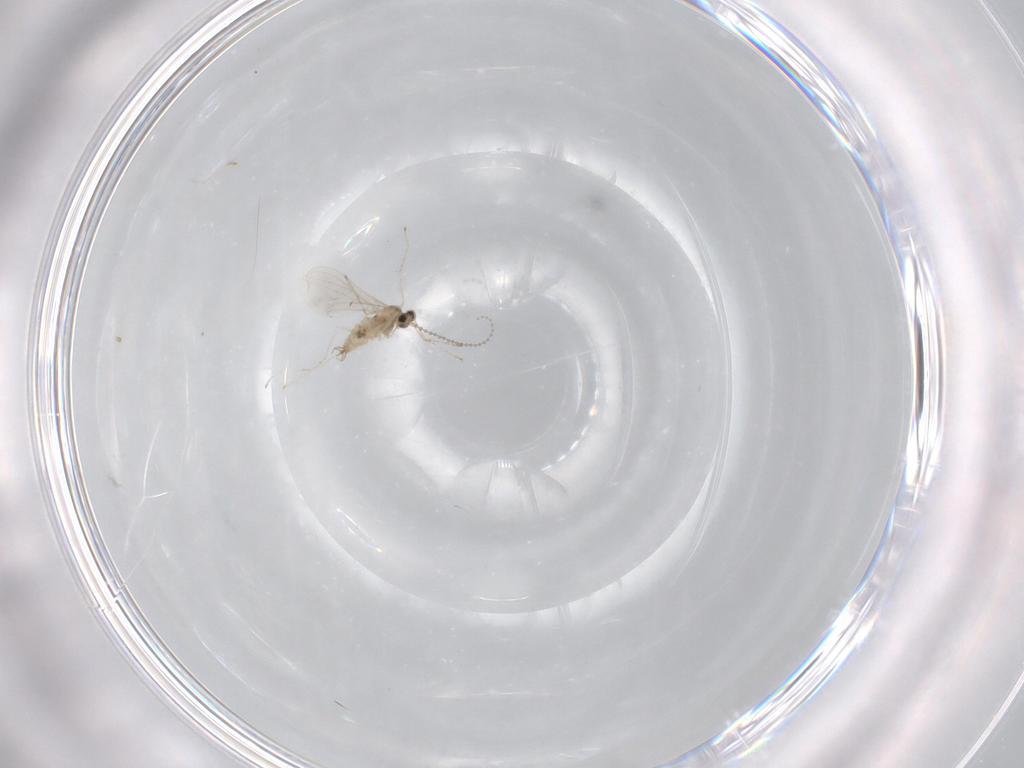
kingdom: Animalia
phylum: Arthropoda
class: Insecta
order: Diptera
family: Cecidomyiidae
